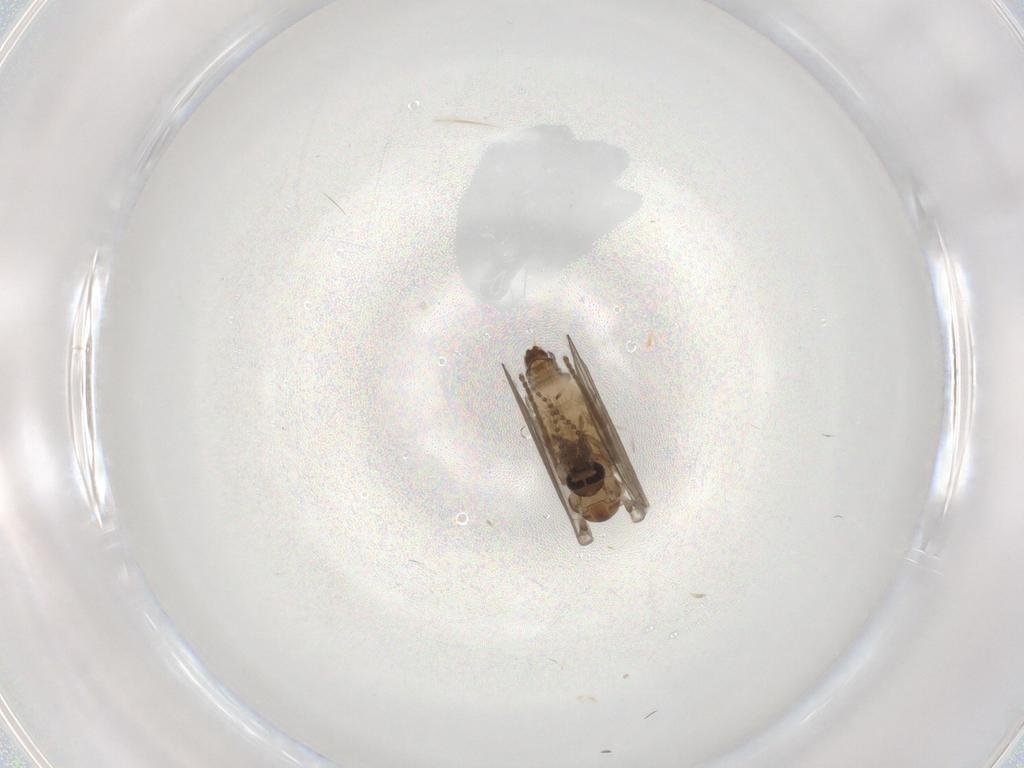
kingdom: Animalia
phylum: Arthropoda
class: Insecta
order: Diptera
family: Psychodidae
